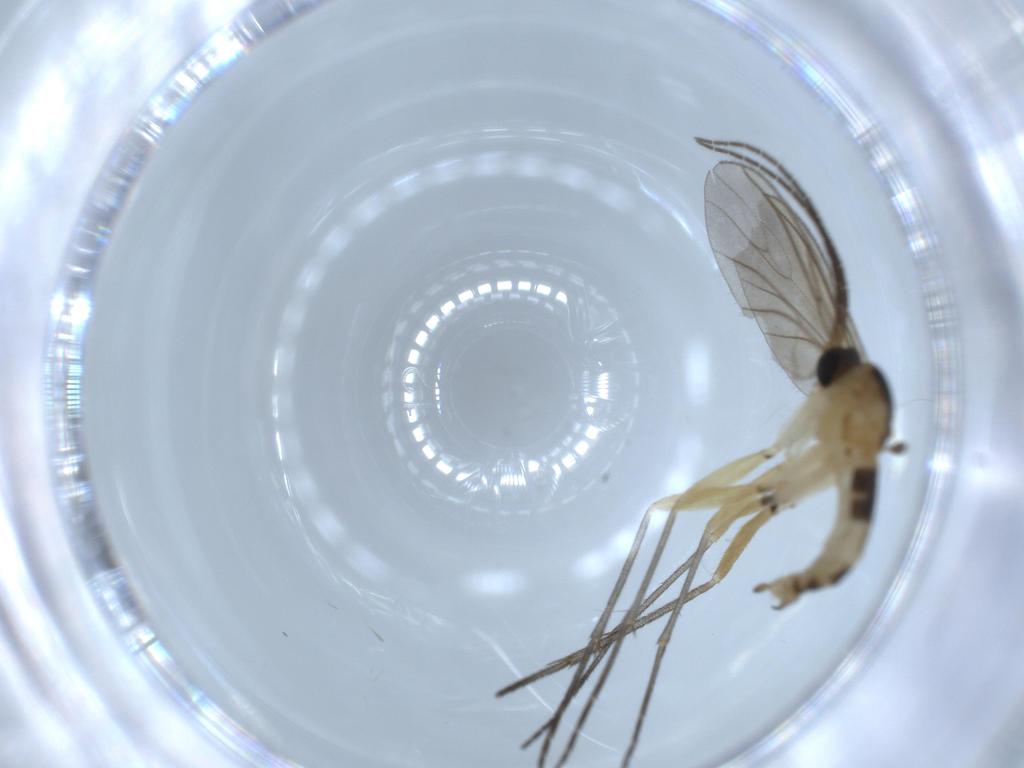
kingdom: Animalia
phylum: Arthropoda
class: Insecta
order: Diptera
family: Sciaridae
